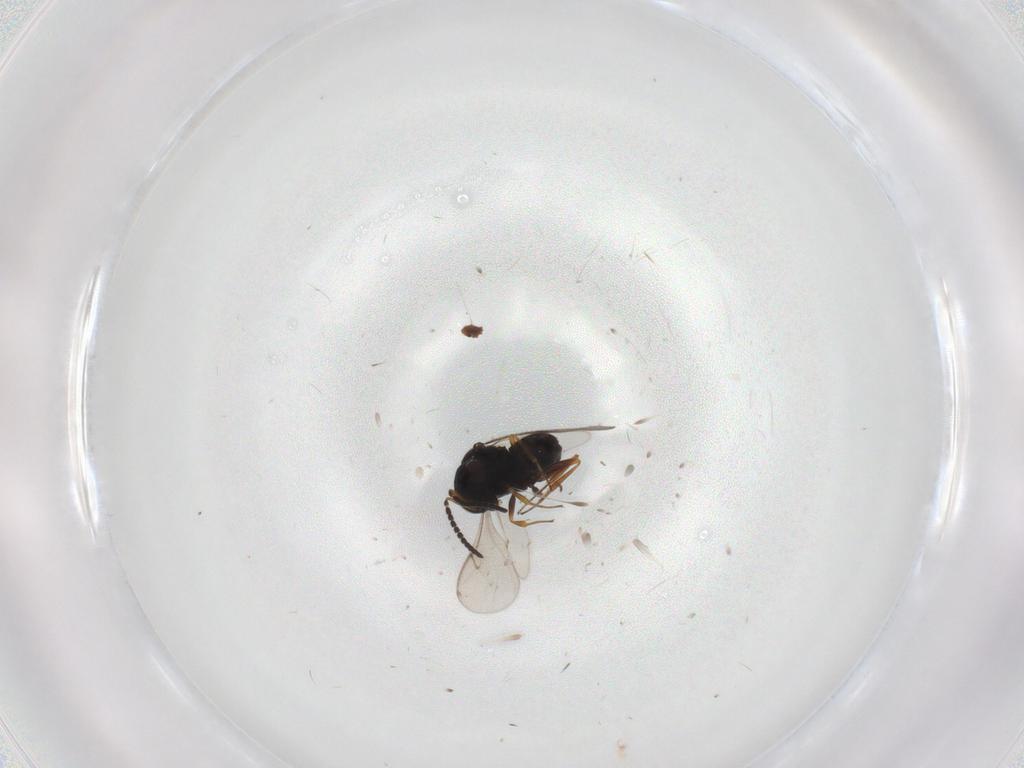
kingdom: Animalia
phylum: Arthropoda
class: Insecta
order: Hymenoptera
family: Scelionidae
